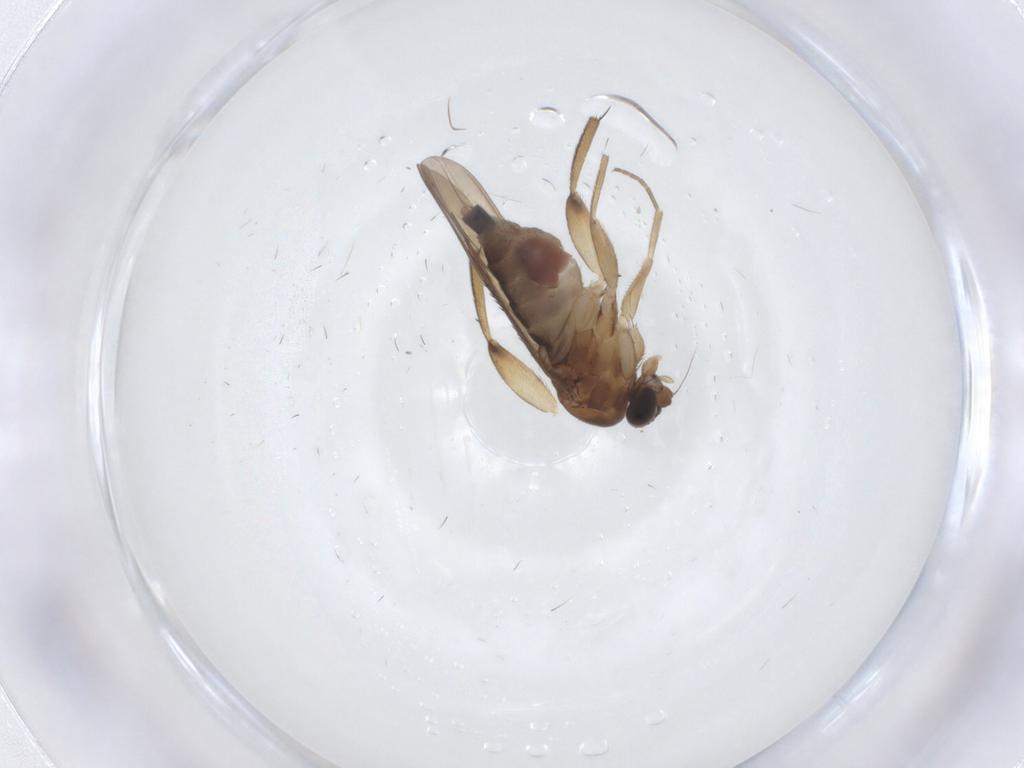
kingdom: Animalia
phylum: Arthropoda
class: Insecta
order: Diptera
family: Phoridae
